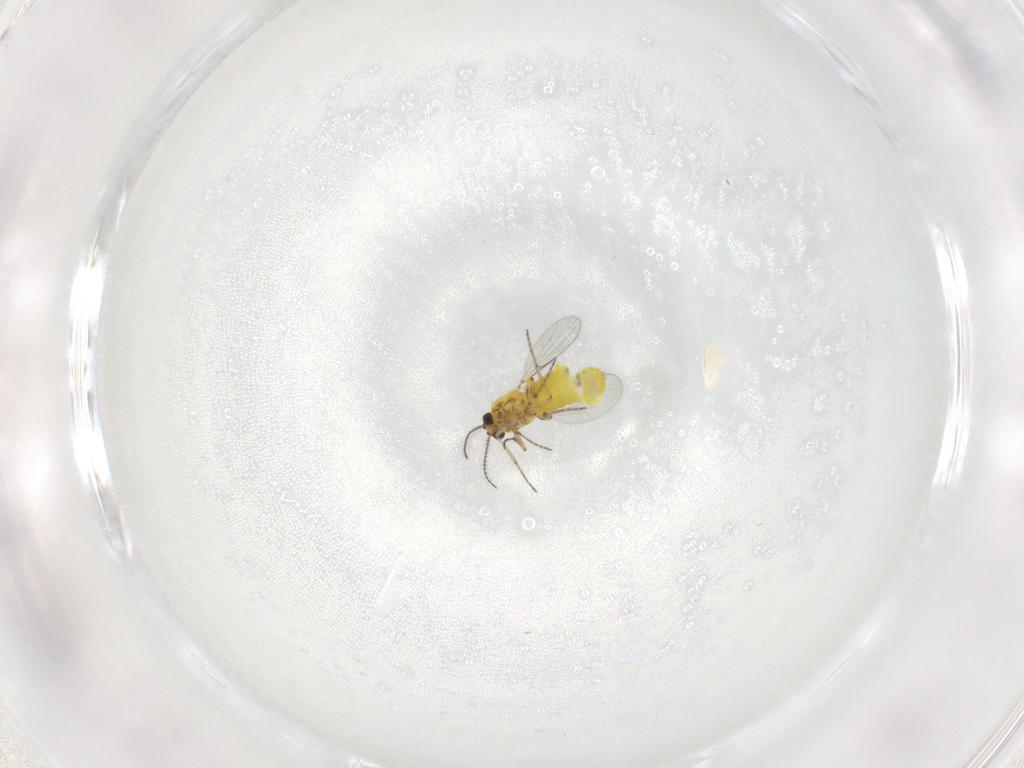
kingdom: Animalia
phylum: Arthropoda
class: Insecta
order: Diptera
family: Ceratopogonidae
